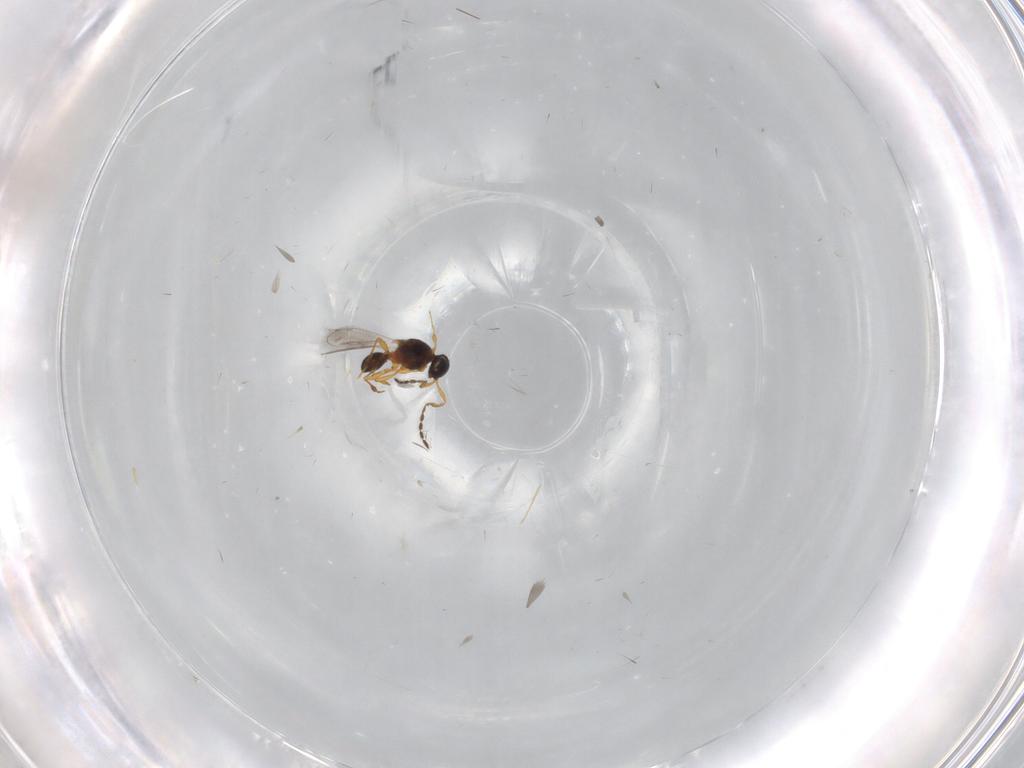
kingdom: Animalia
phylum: Arthropoda
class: Insecta
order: Hymenoptera
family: Platygastridae
